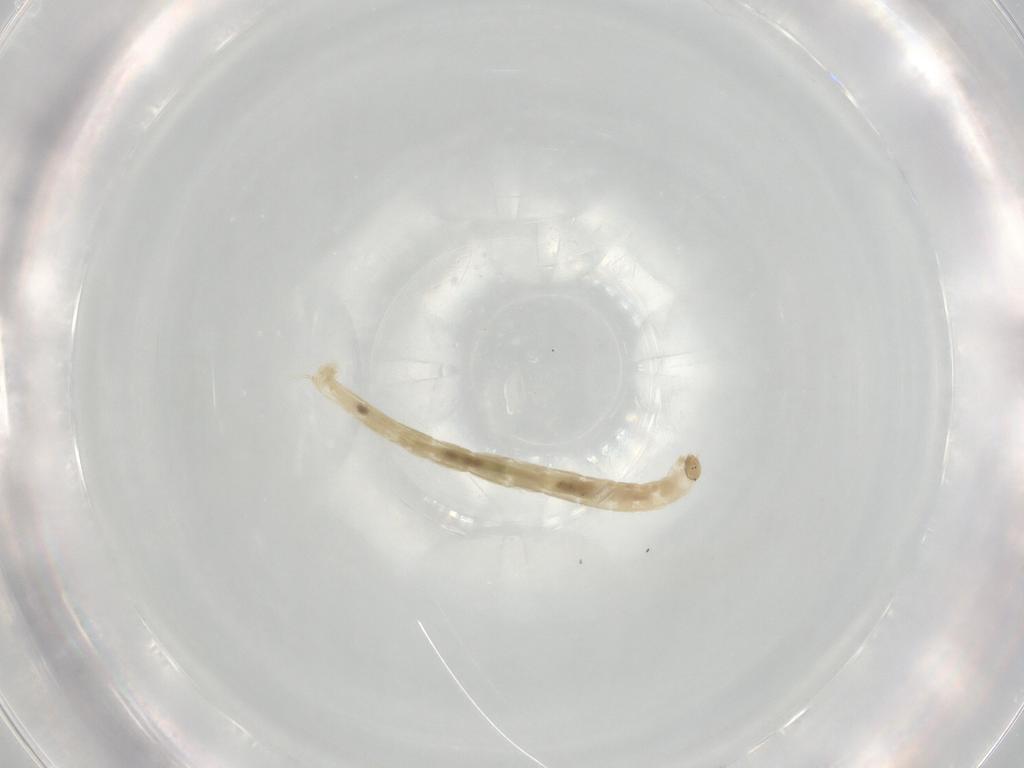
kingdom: Animalia
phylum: Arthropoda
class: Insecta
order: Diptera
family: Chironomidae
